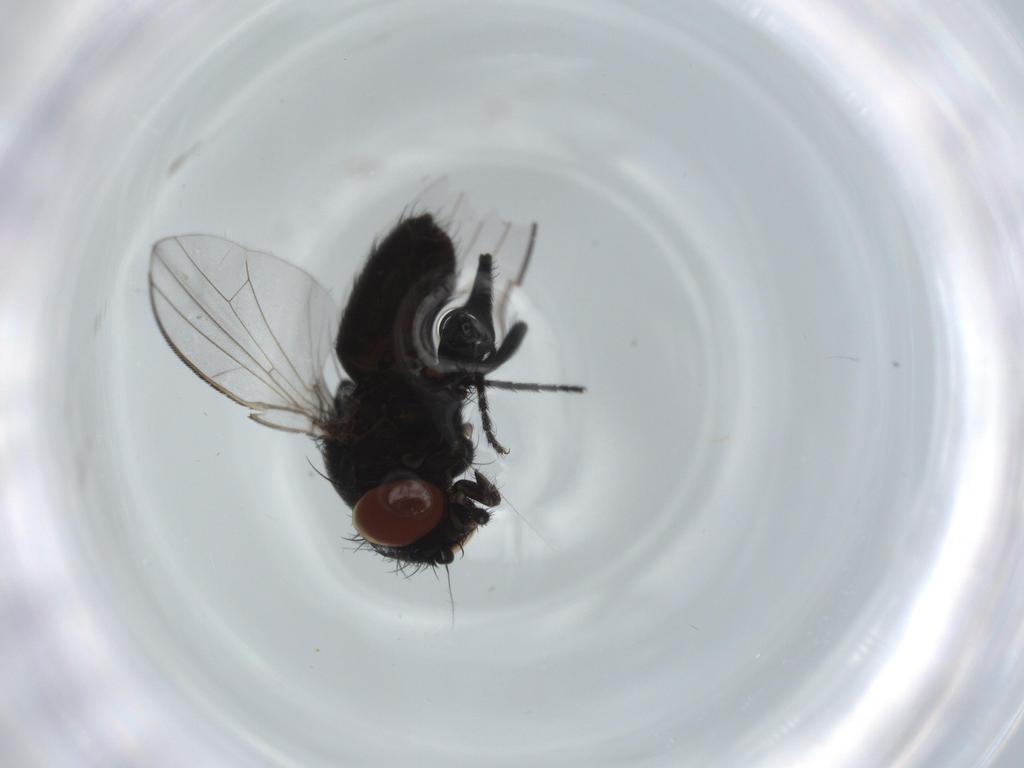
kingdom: Animalia
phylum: Arthropoda
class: Insecta
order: Diptera
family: Milichiidae
